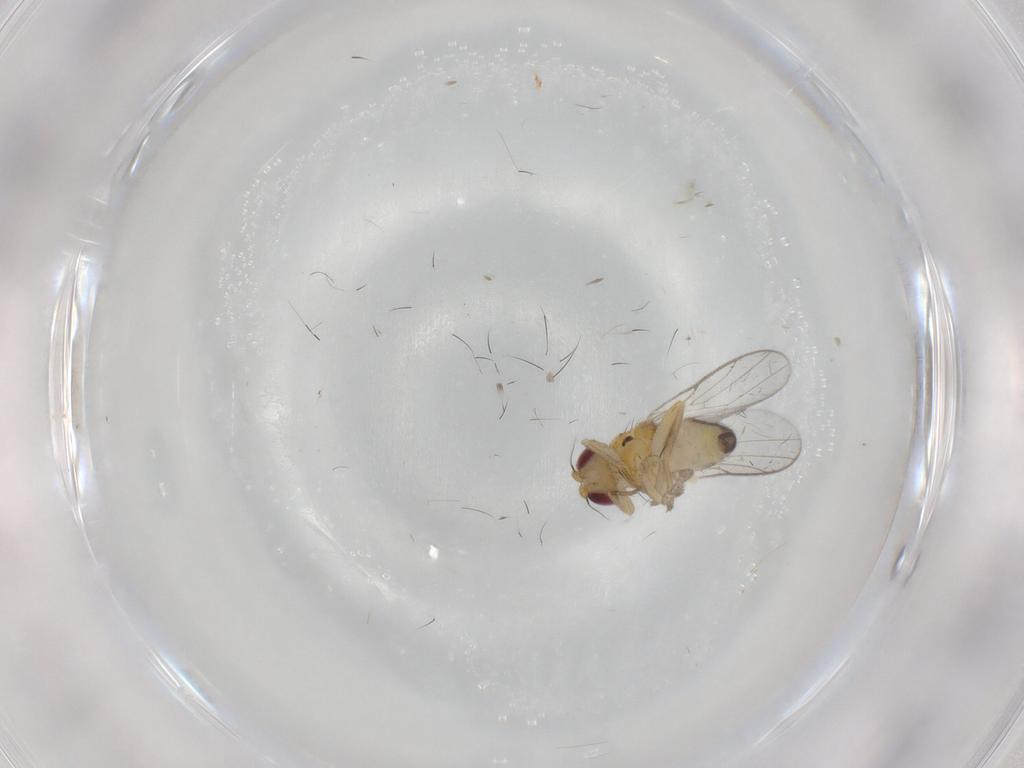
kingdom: Animalia
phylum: Arthropoda
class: Insecta
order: Diptera
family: Chloropidae
